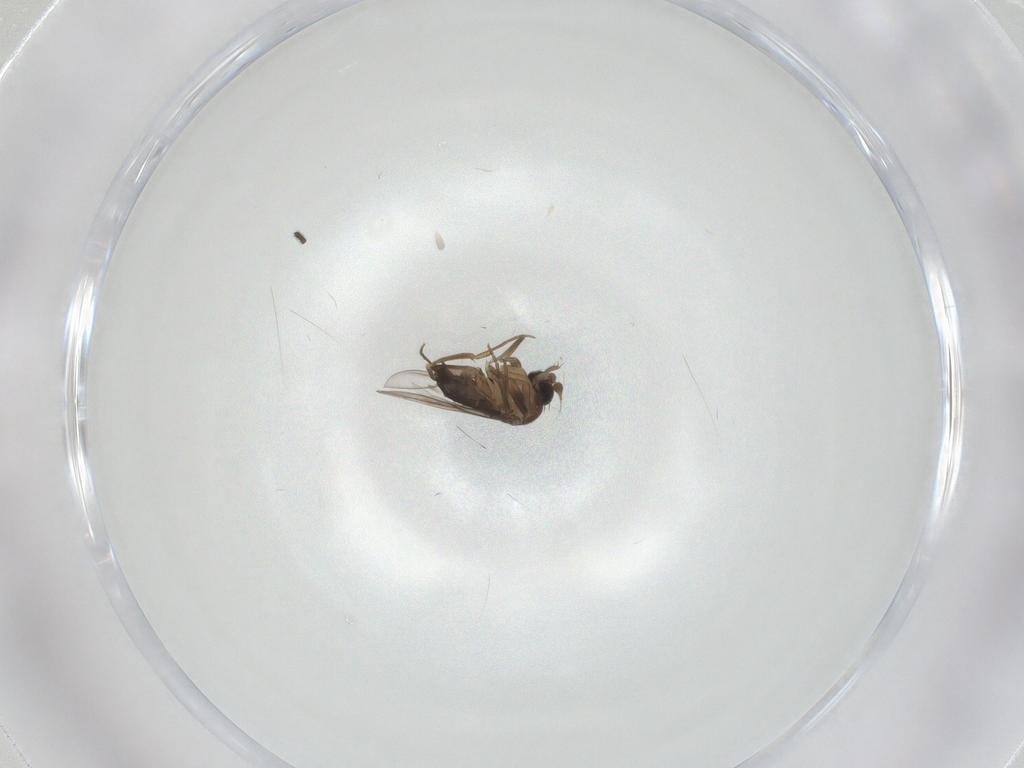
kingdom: Animalia
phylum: Arthropoda
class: Insecta
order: Diptera
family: Phoridae
